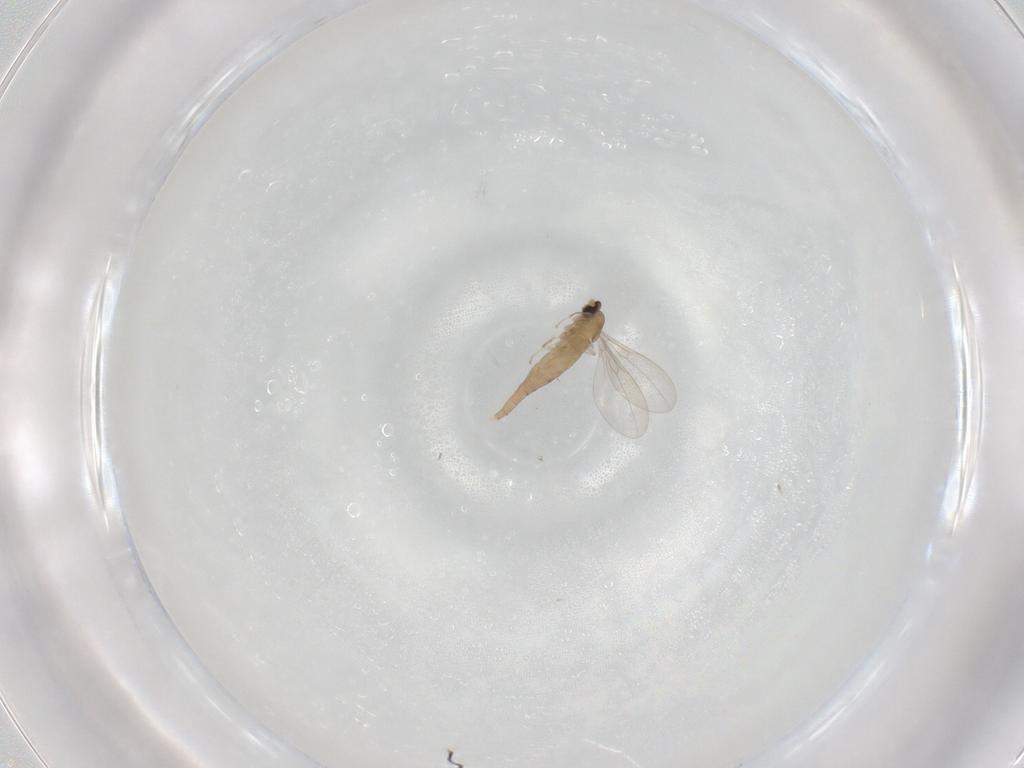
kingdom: Animalia
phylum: Arthropoda
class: Insecta
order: Diptera
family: Cecidomyiidae
